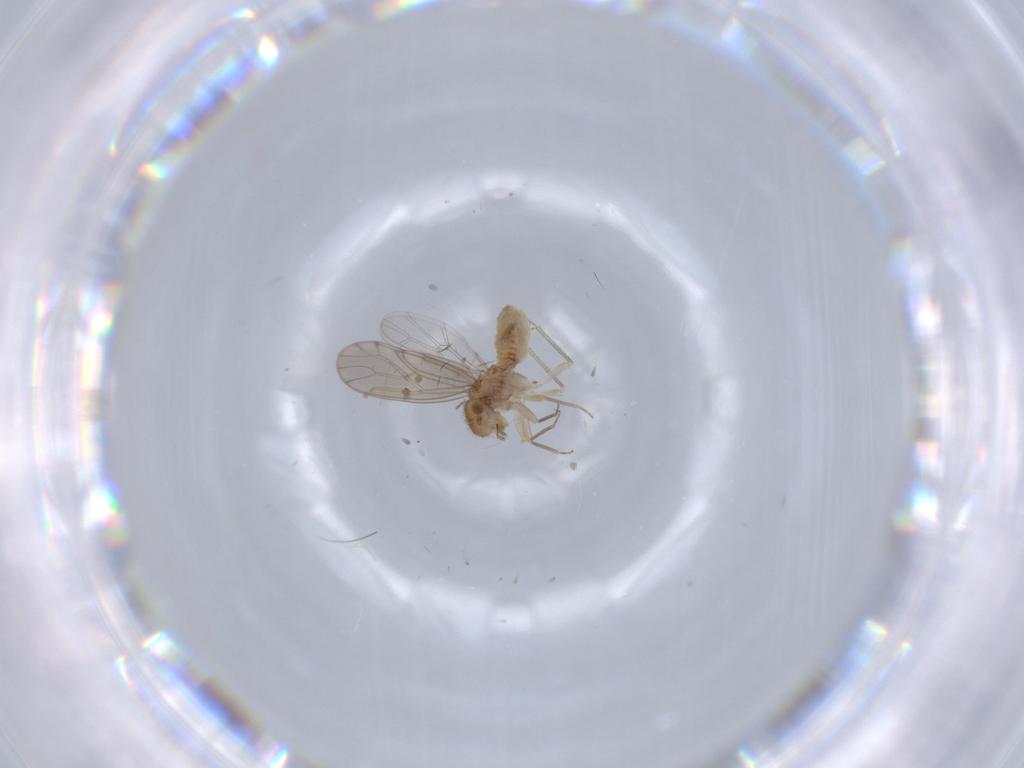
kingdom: Animalia
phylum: Arthropoda
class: Insecta
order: Psocodea
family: Ectopsocidae
